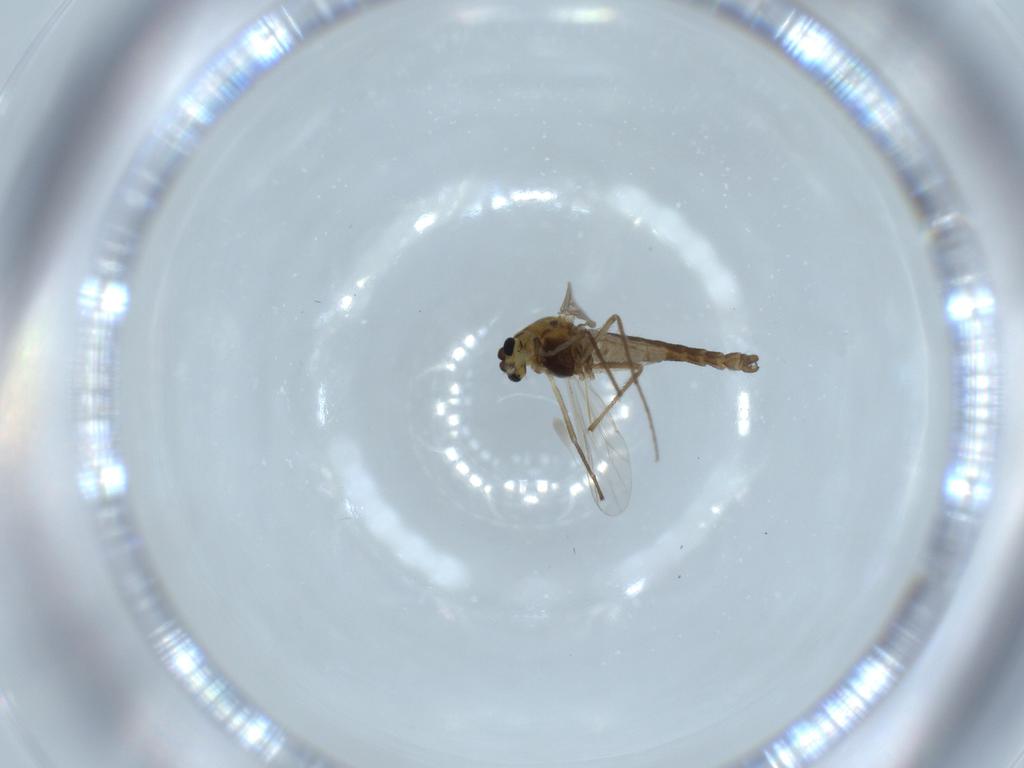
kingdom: Animalia
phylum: Arthropoda
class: Insecta
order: Diptera
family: Chironomidae
